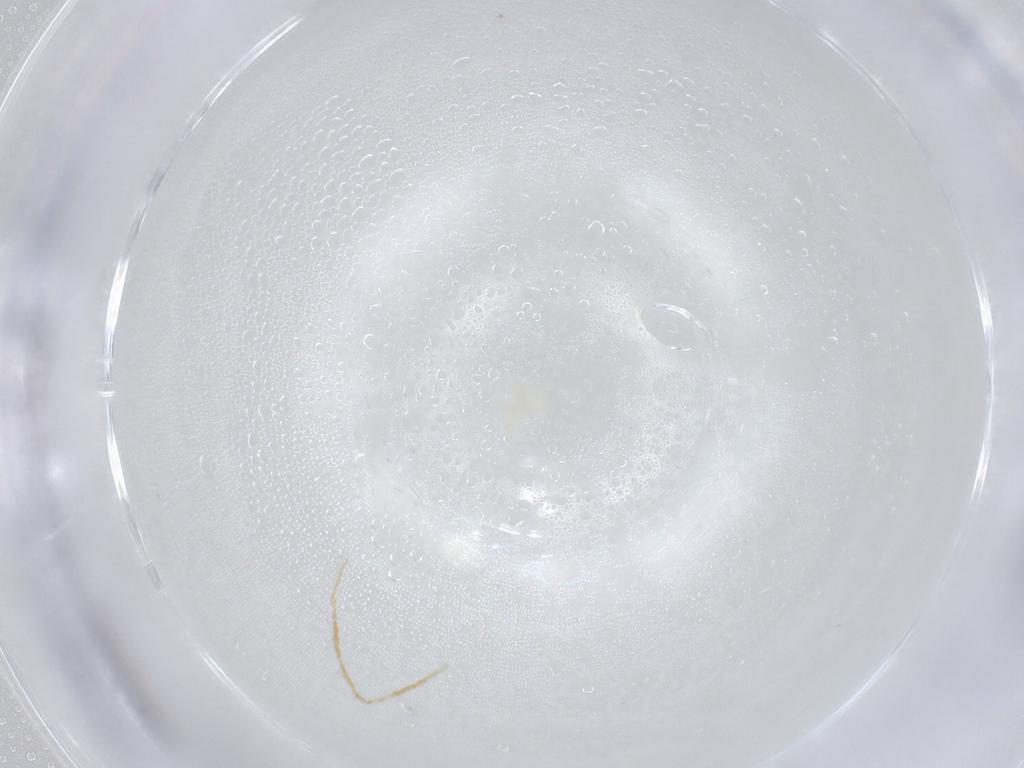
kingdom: Animalia
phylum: Arthropoda
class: Arachnida
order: Trombidiformes
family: Eupodidae
